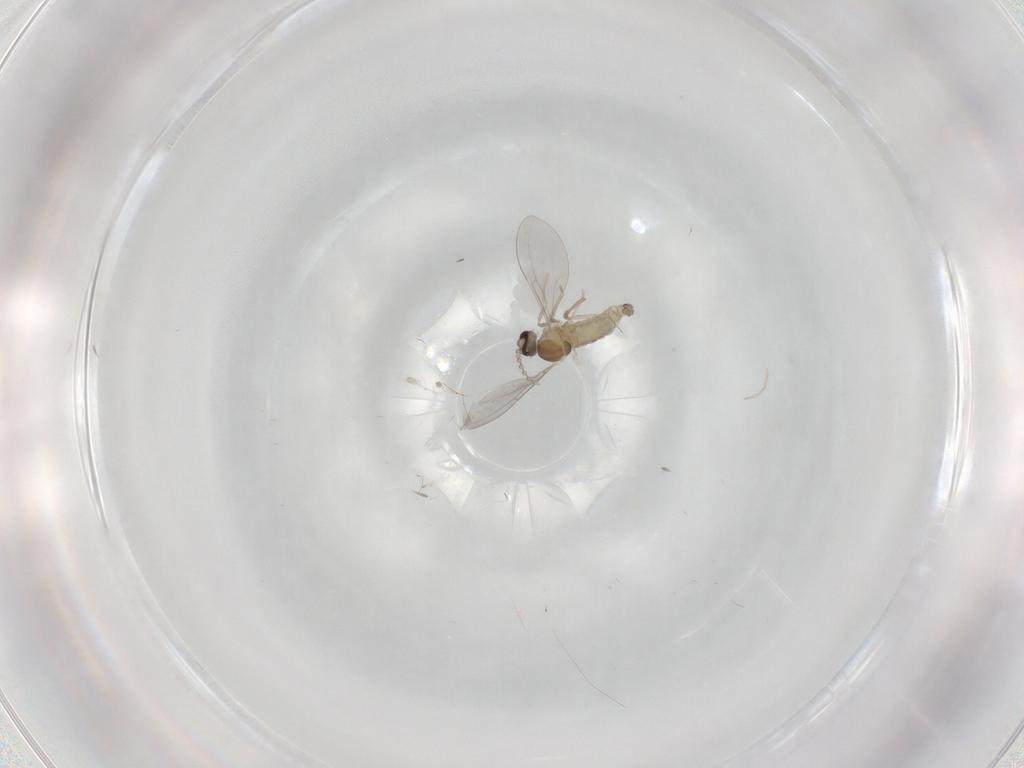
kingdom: Animalia
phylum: Arthropoda
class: Insecta
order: Diptera
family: Cecidomyiidae
